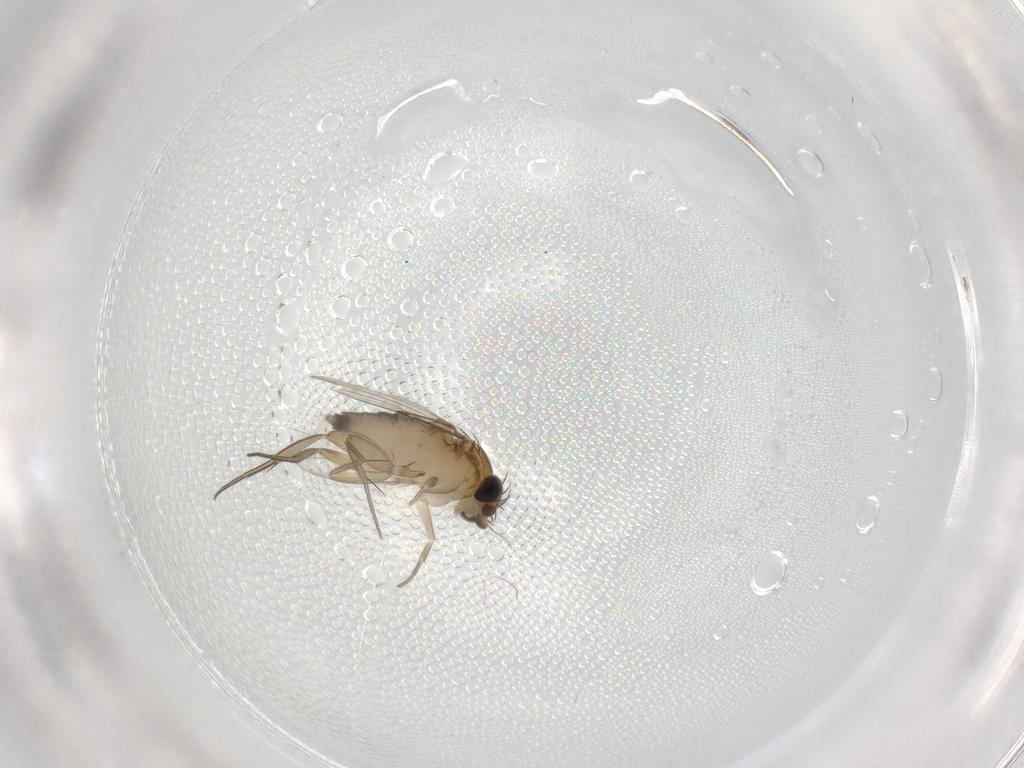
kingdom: Animalia
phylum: Arthropoda
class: Insecta
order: Diptera
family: Phoridae
